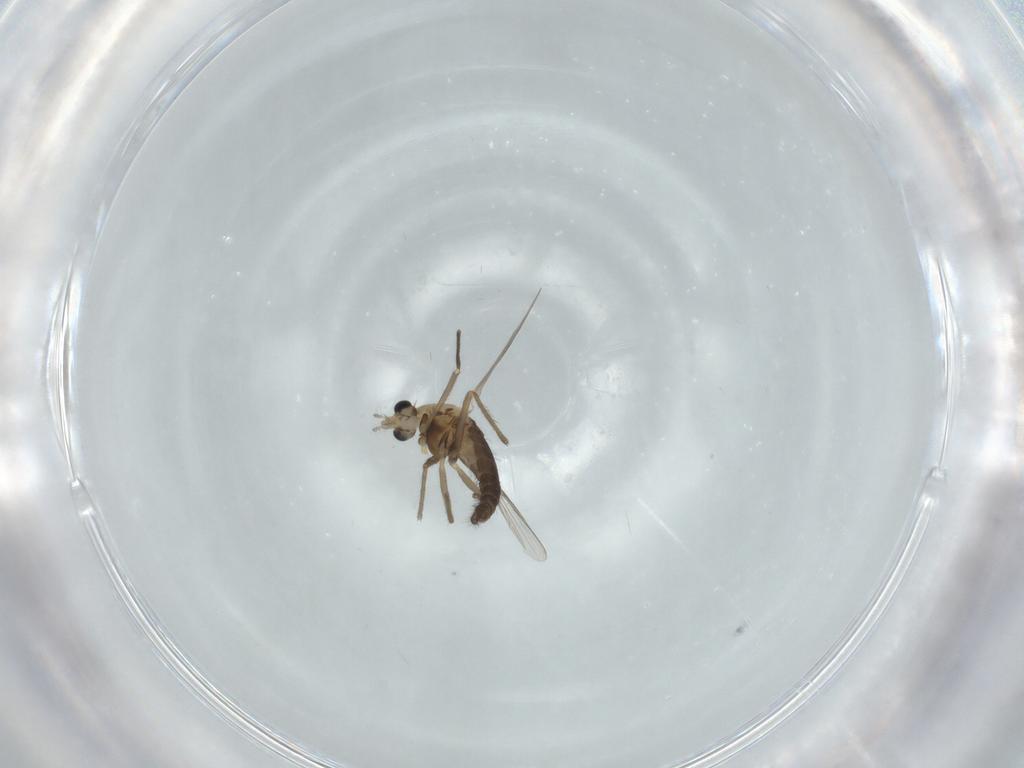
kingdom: Animalia
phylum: Arthropoda
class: Insecta
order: Diptera
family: Chironomidae
